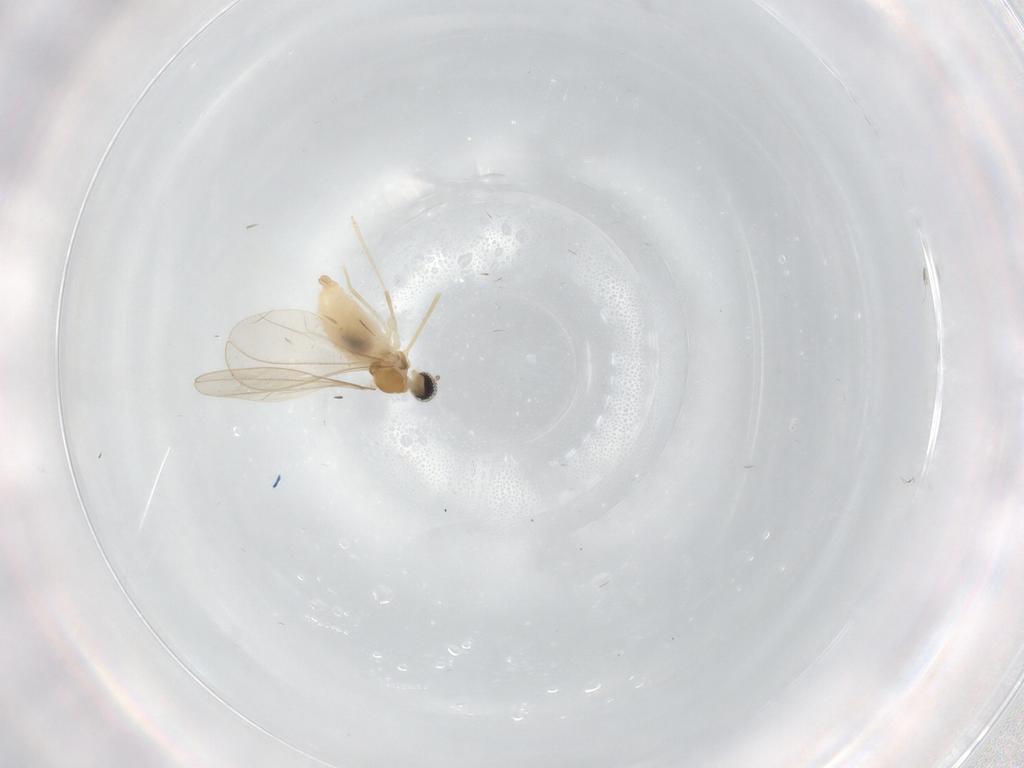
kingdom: Animalia
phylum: Arthropoda
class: Insecta
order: Diptera
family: Cecidomyiidae
